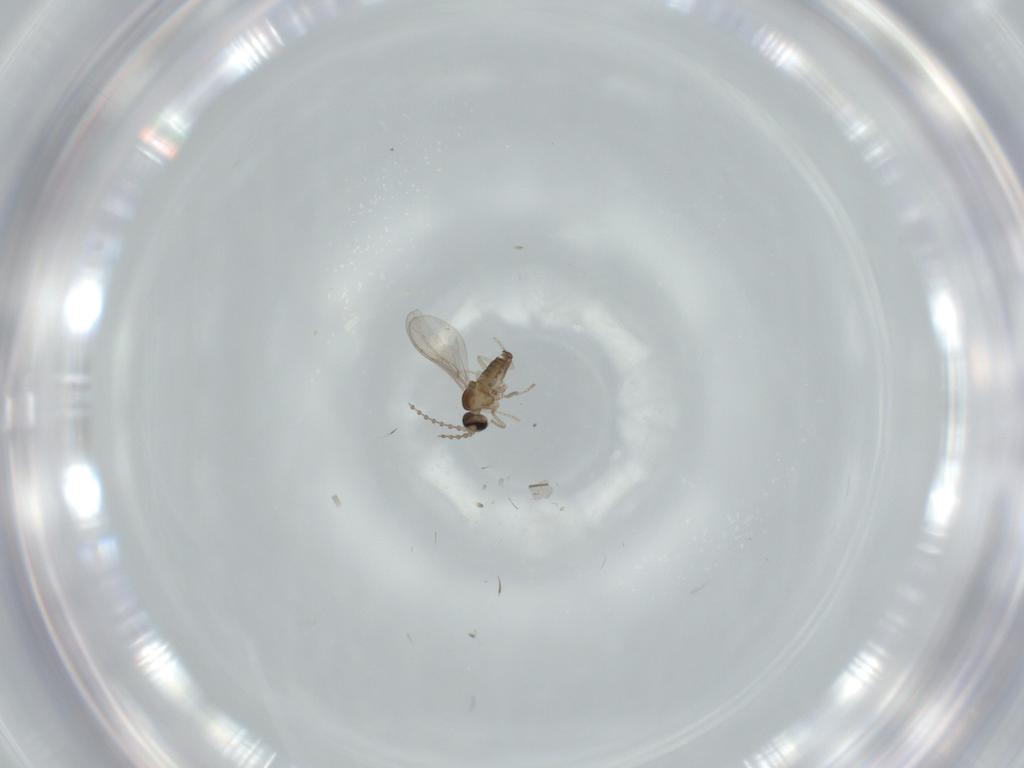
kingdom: Animalia
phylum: Arthropoda
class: Insecta
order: Diptera
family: Cecidomyiidae
